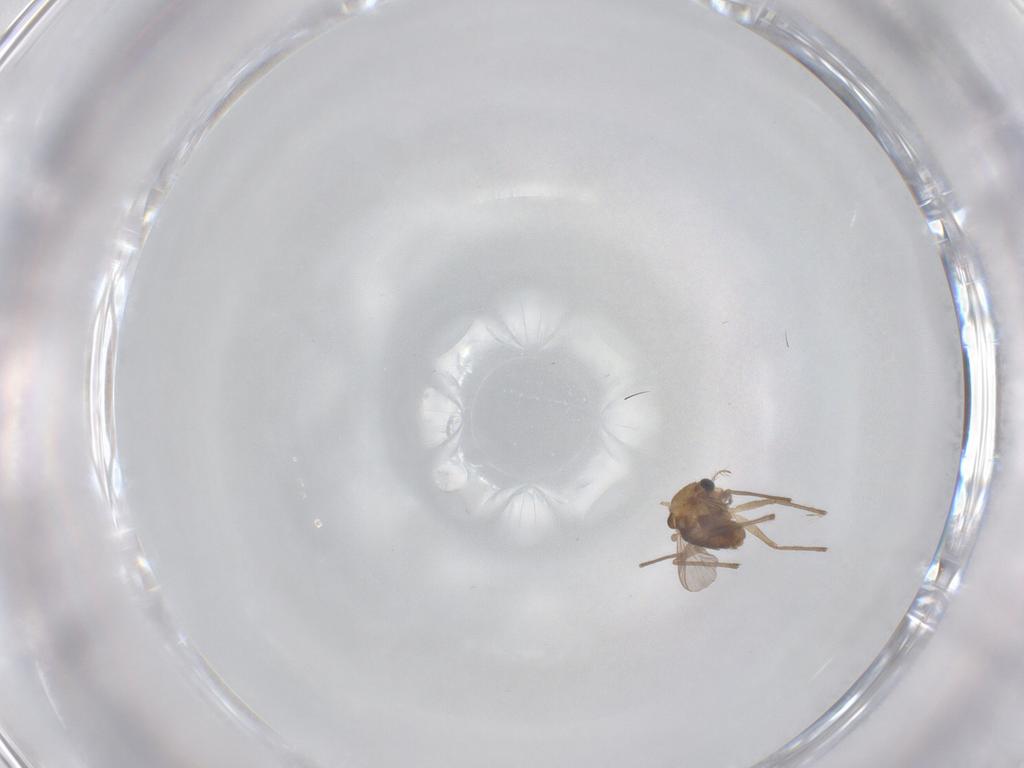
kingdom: Animalia
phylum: Arthropoda
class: Insecta
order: Diptera
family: Chironomidae
